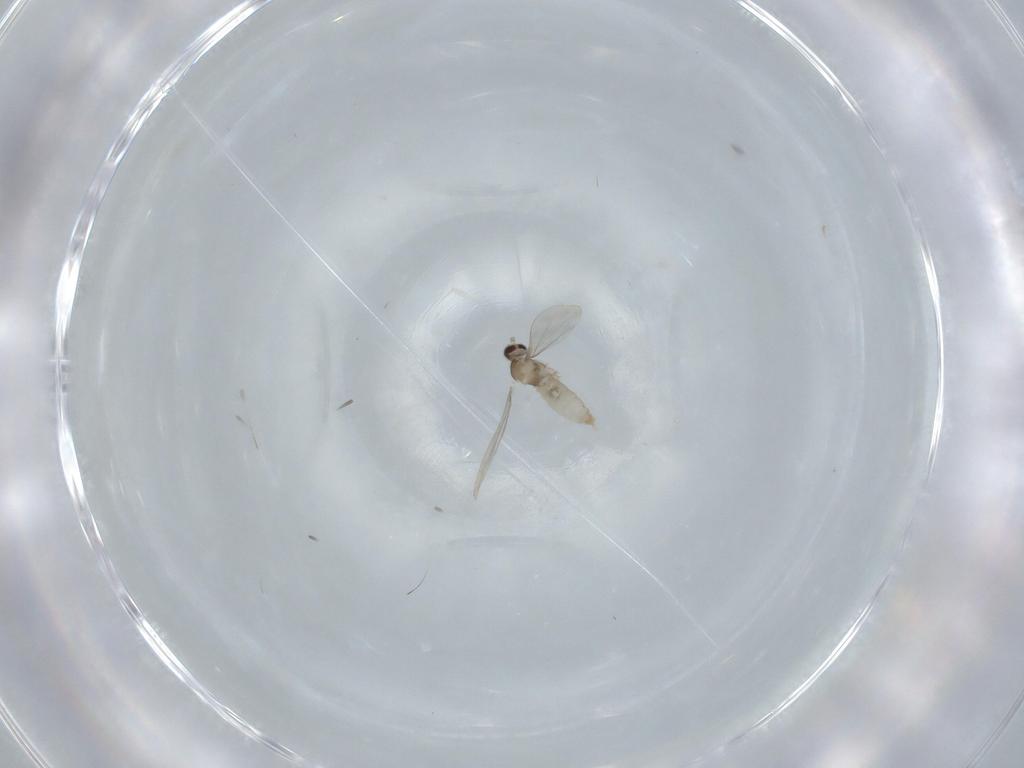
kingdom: Animalia
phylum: Arthropoda
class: Insecta
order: Diptera
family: Cecidomyiidae
